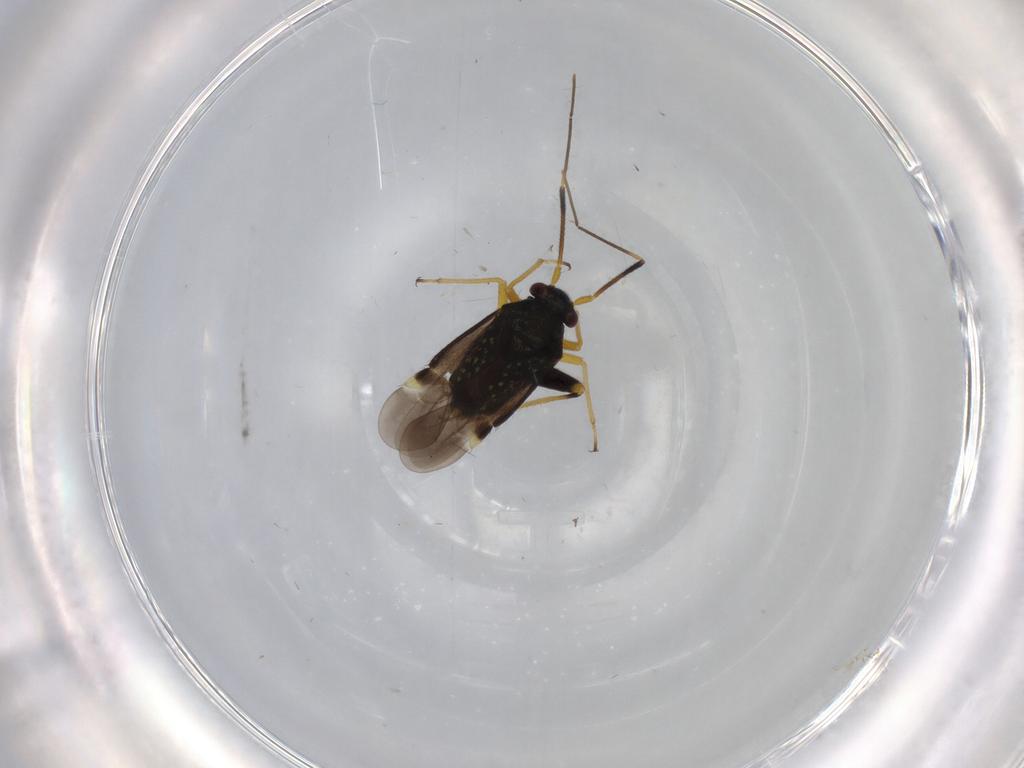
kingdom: Animalia
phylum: Arthropoda
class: Insecta
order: Hemiptera
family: Miridae
